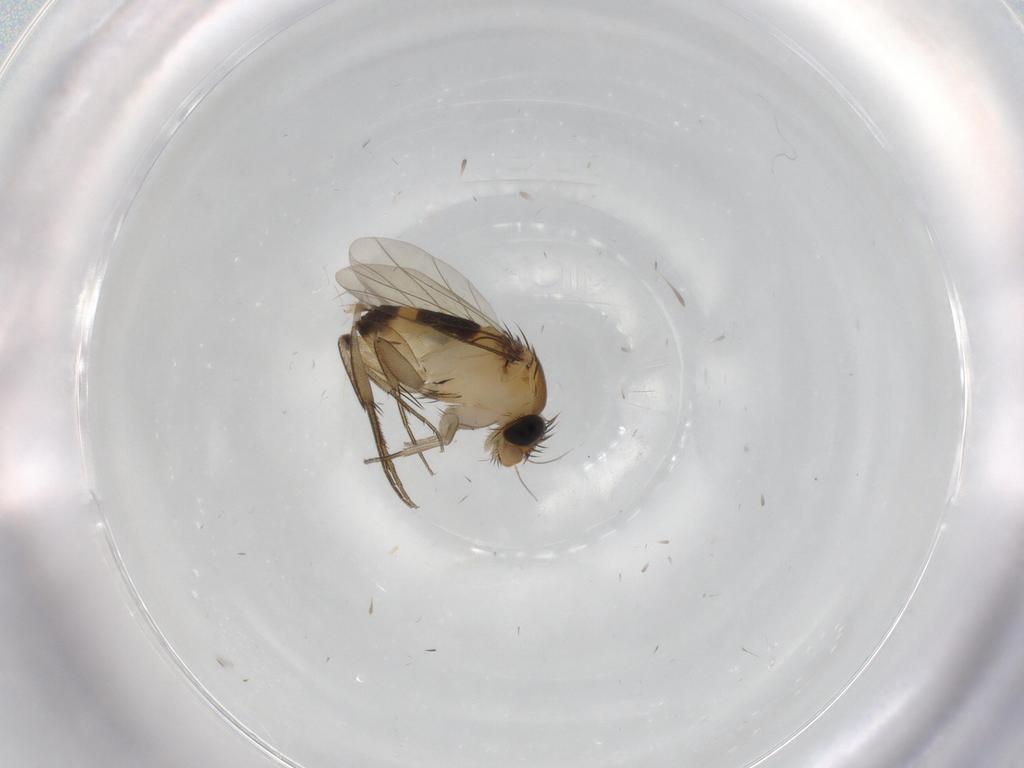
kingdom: Animalia
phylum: Arthropoda
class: Insecta
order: Diptera
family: Phoridae
